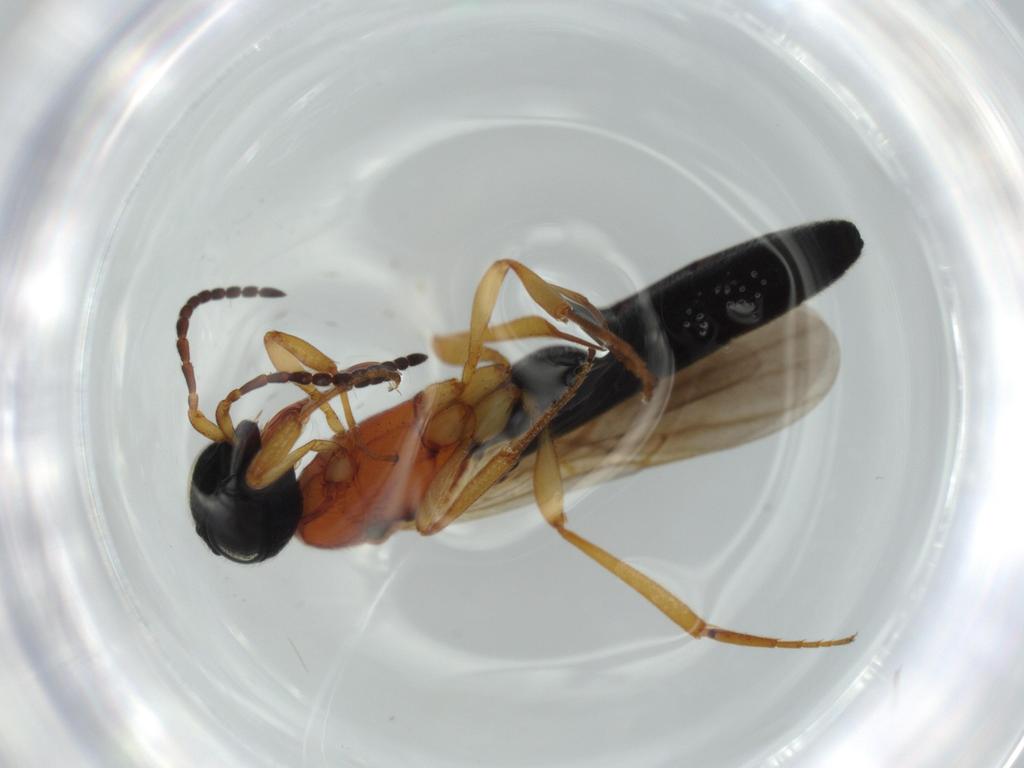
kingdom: Animalia
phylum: Arthropoda
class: Insecta
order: Hymenoptera
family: Scelionidae
